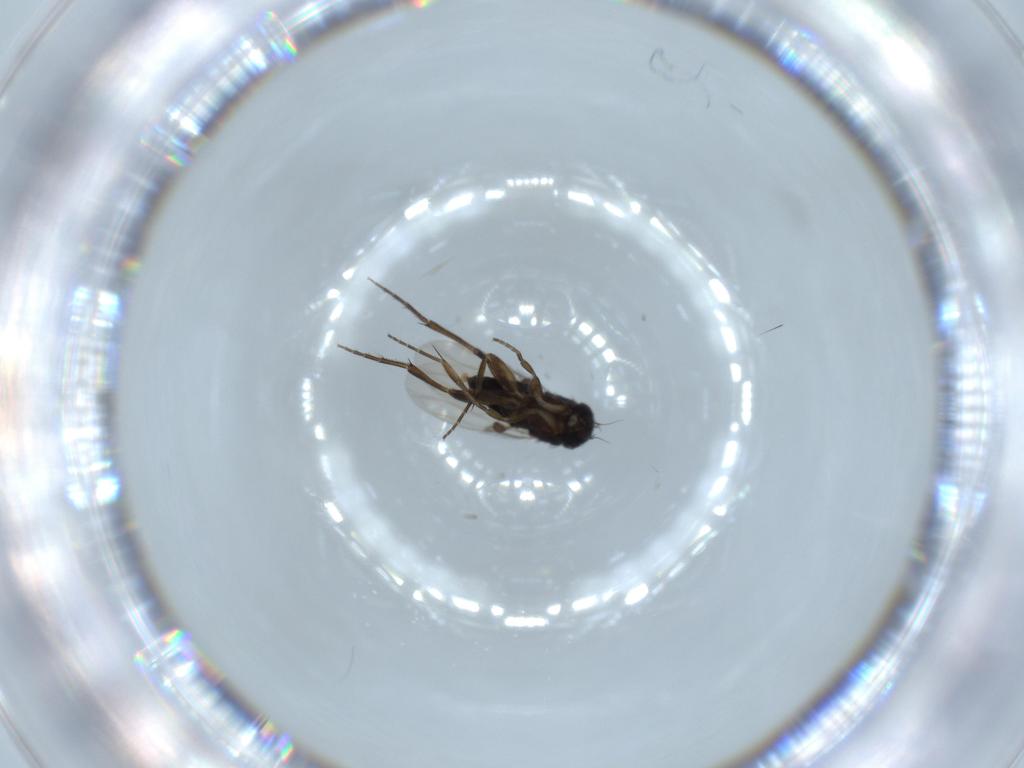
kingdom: Animalia
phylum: Arthropoda
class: Insecta
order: Diptera
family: Phoridae
